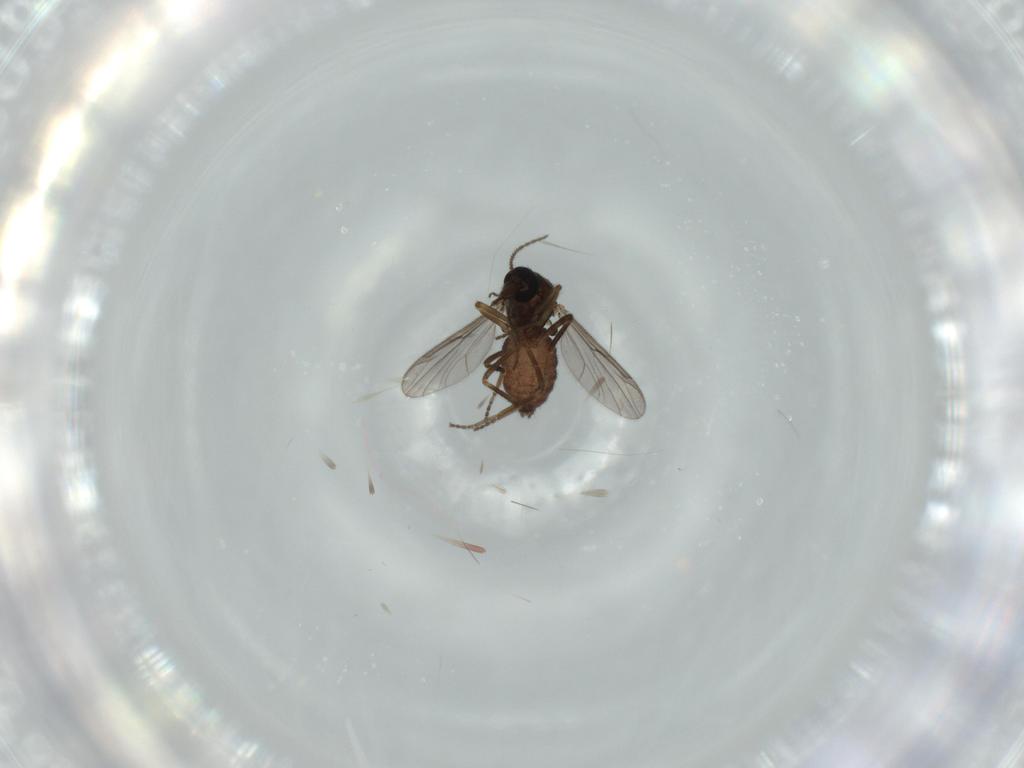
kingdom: Animalia
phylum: Arthropoda
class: Insecta
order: Diptera
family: Ceratopogonidae
